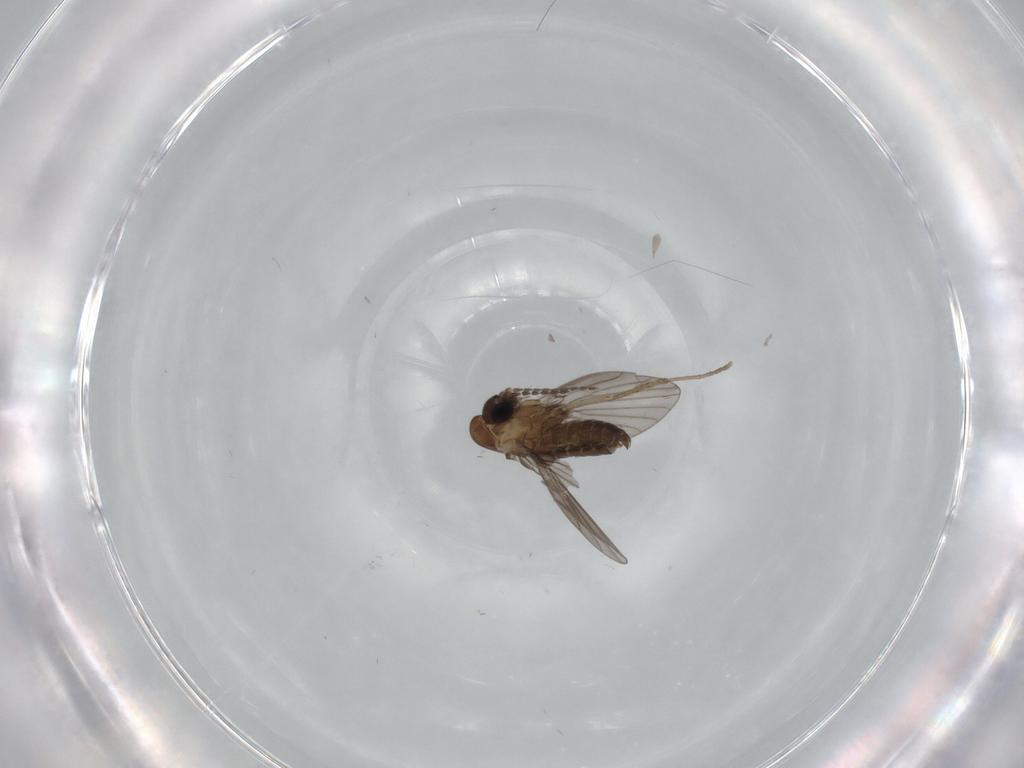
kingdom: Animalia
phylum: Arthropoda
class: Insecta
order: Diptera
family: Psychodidae
